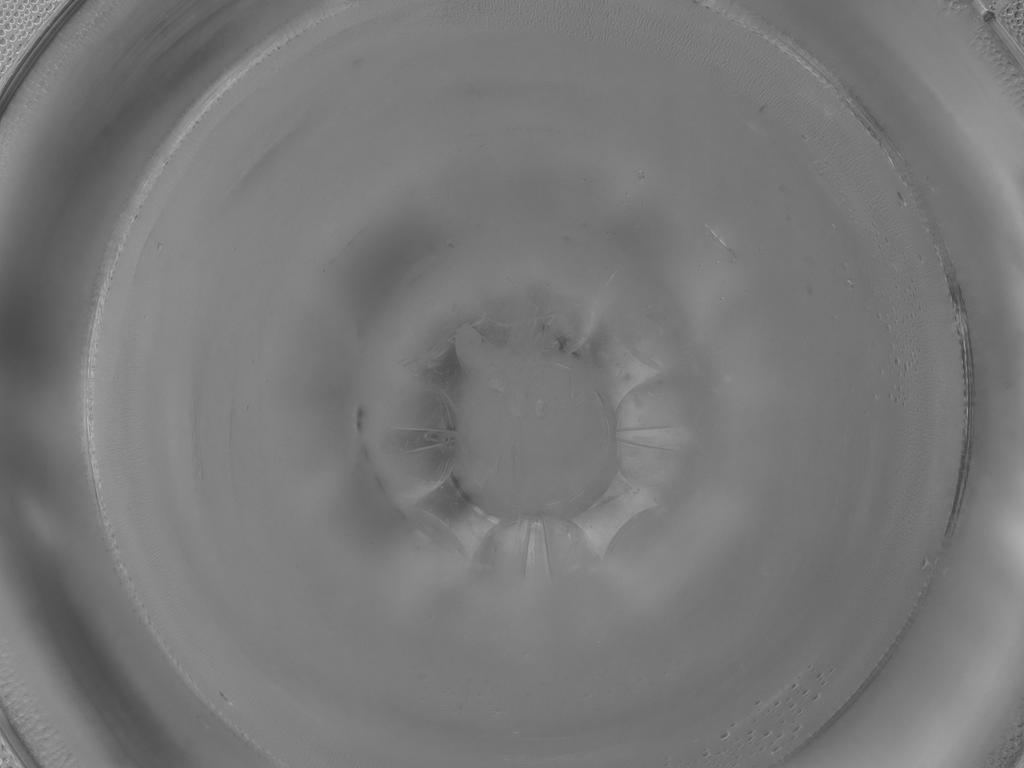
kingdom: Animalia
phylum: Arthropoda
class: Insecta
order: Diptera
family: Cecidomyiidae
